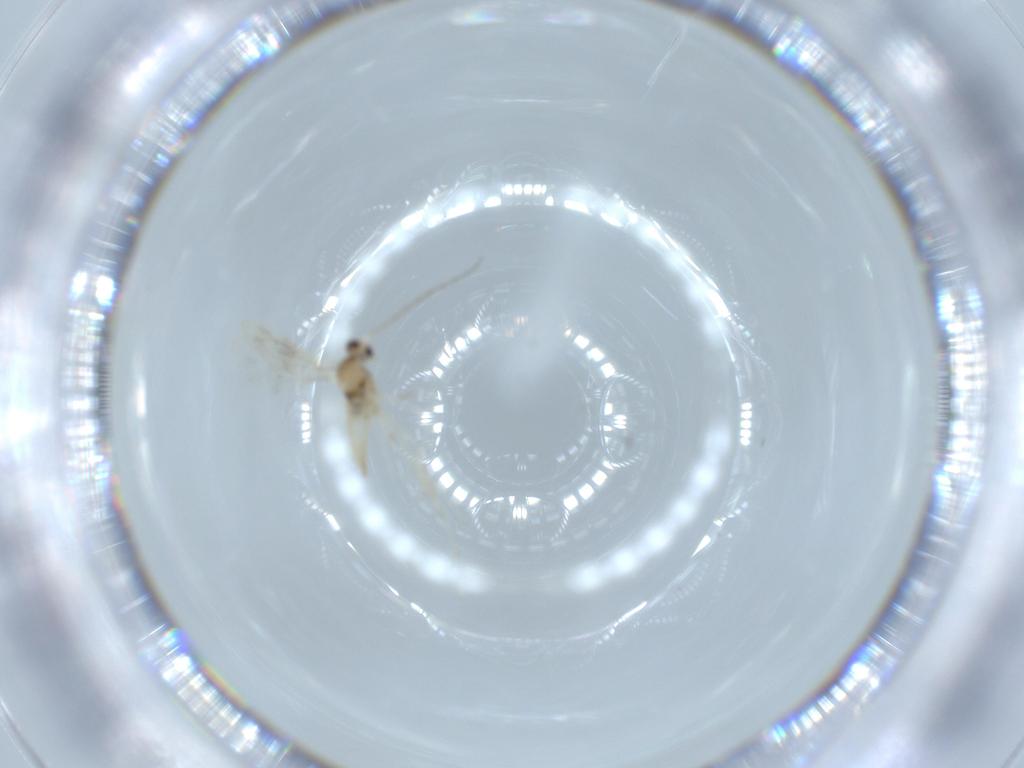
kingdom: Animalia
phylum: Arthropoda
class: Insecta
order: Diptera
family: Cecidomyiidae
